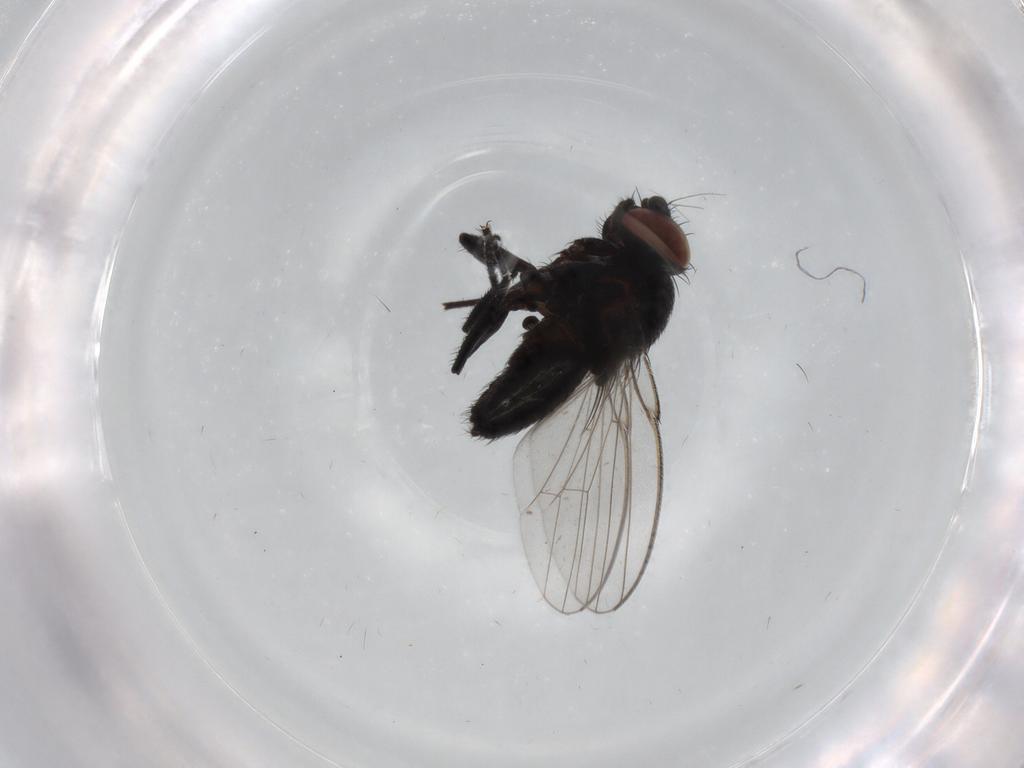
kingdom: Animalia
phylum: Arthropoda
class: Insecta
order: Diptera
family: Milichiidae
